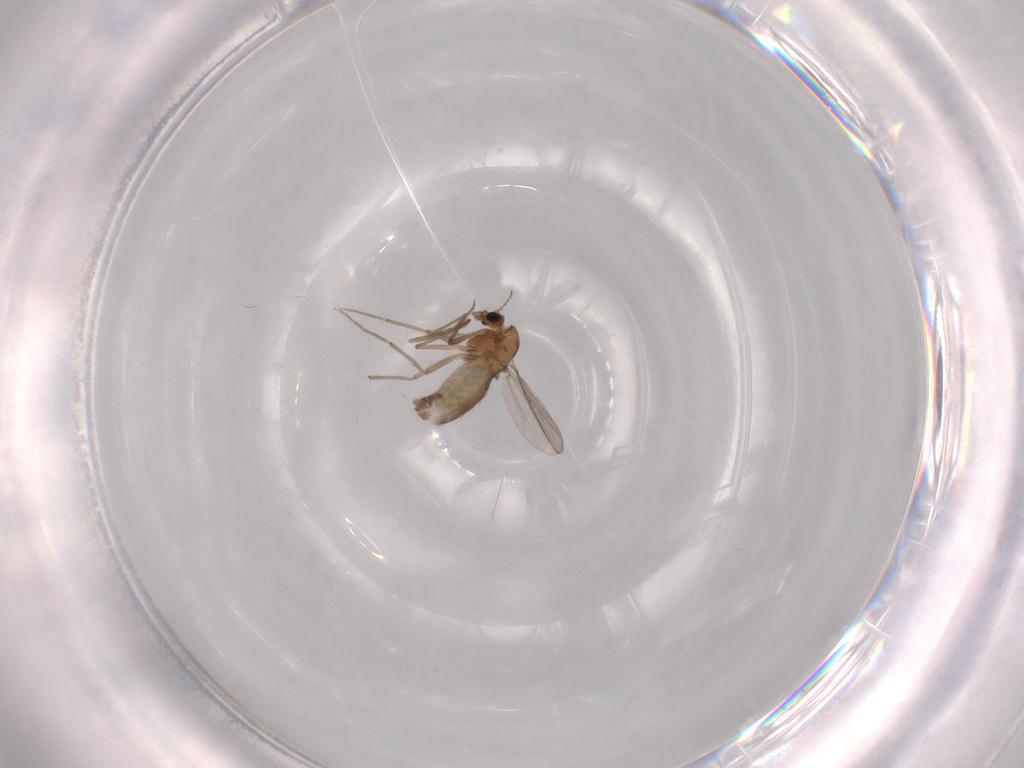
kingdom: Animalia
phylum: Arthropoda
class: Insecta
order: Diptera
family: Chironomidae
